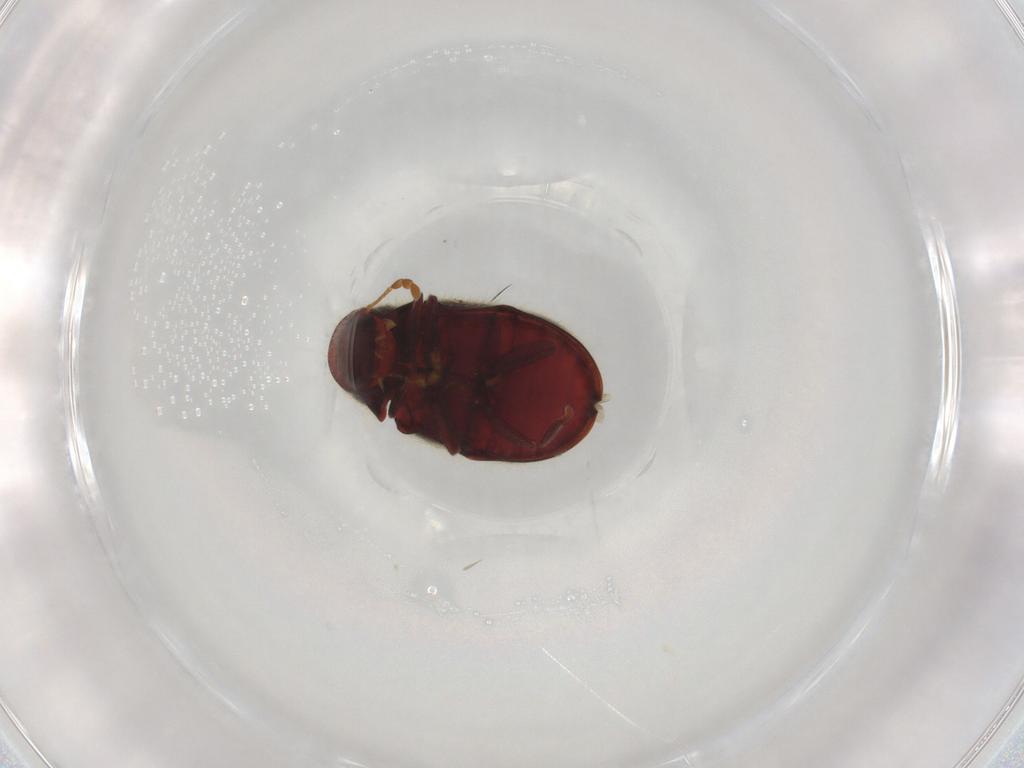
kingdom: Animalia
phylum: Arthropoda
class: Insecta
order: Coleoptera
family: Ptinidae
